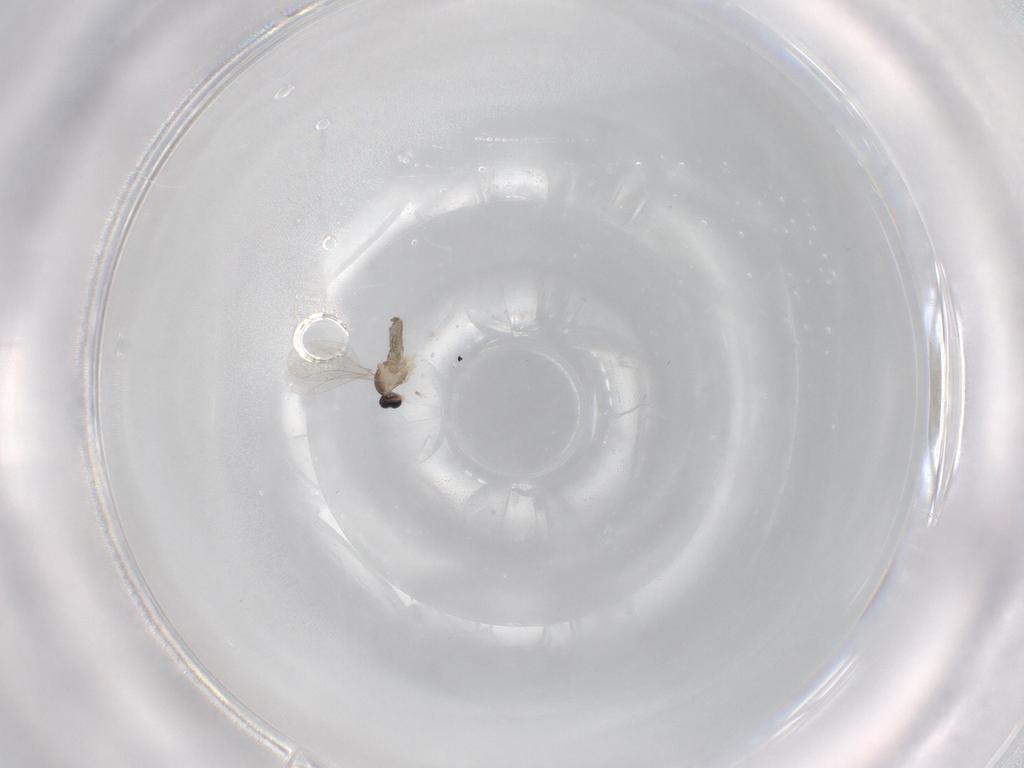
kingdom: Animalia
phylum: Arthropoda
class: Insecta
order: Diptera
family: Cecidomyiidae
